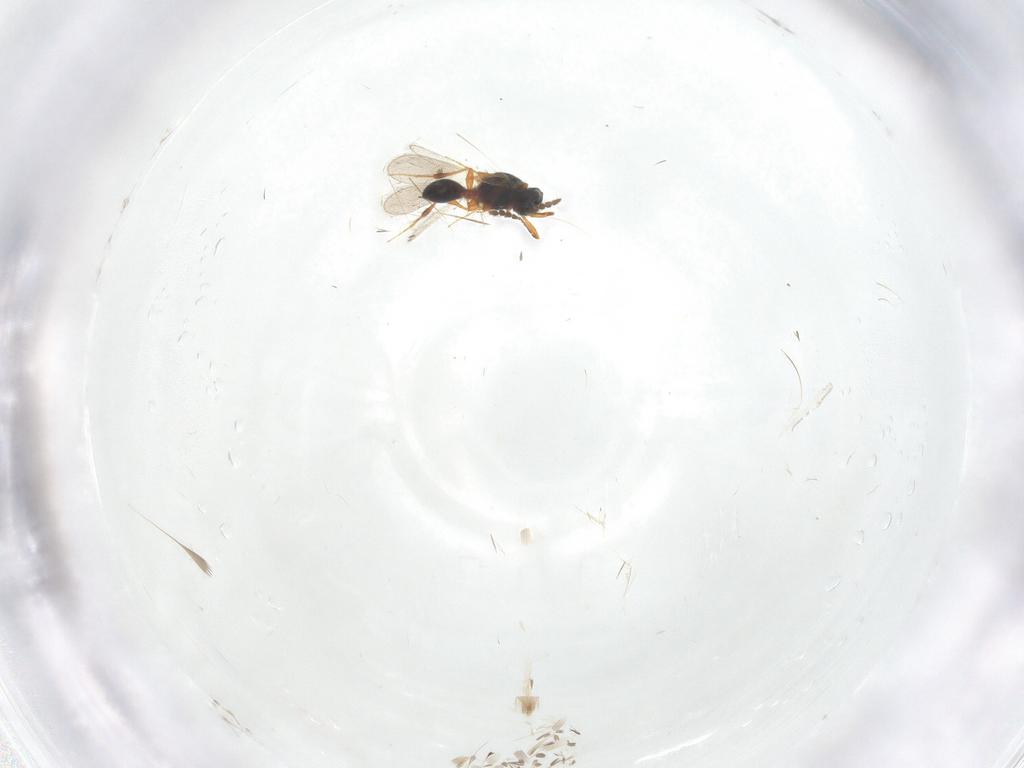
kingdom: Animalia
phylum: Arthropoda
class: Insecta
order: Hymenoptera
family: Platygastridae
